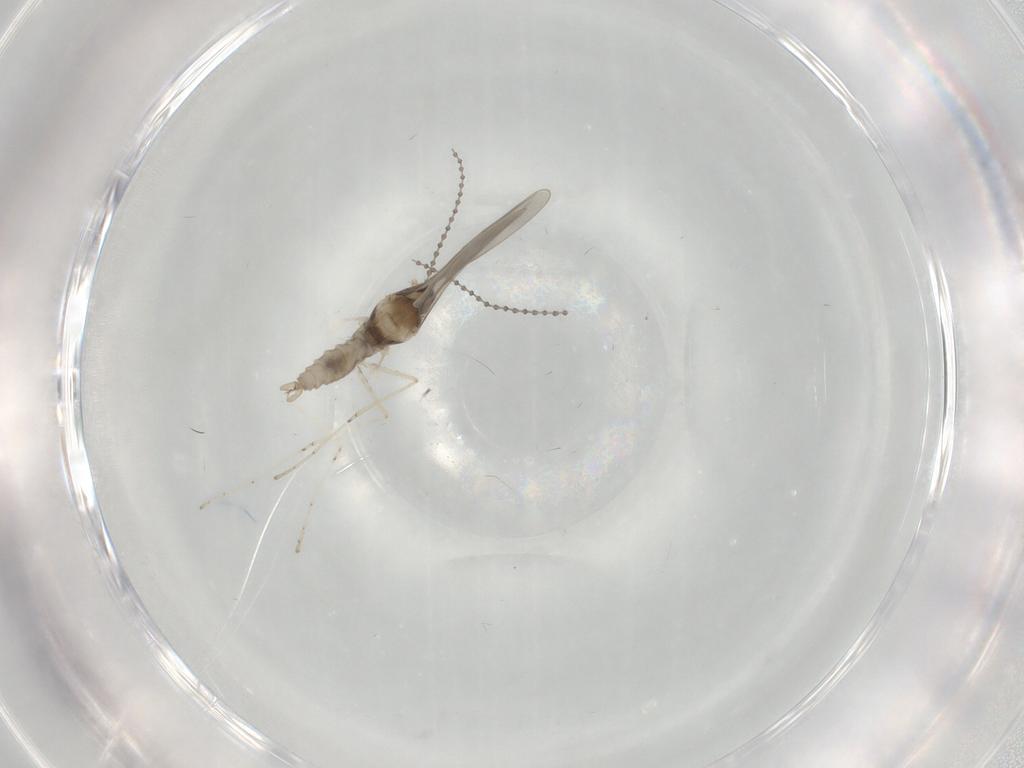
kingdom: Animalia
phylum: Arthropoda
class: Insecta
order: Diptera
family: Cecidomyiidae
